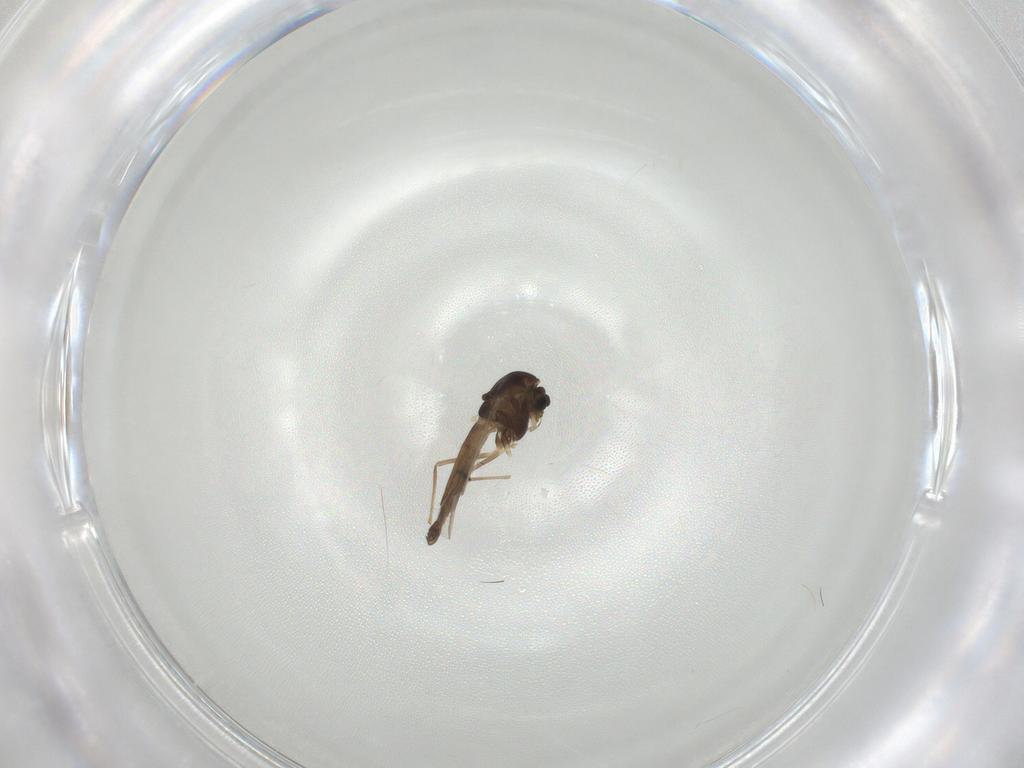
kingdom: Animalia
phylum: Arthropoda
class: Insecta
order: Diptera
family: Chironomidae
